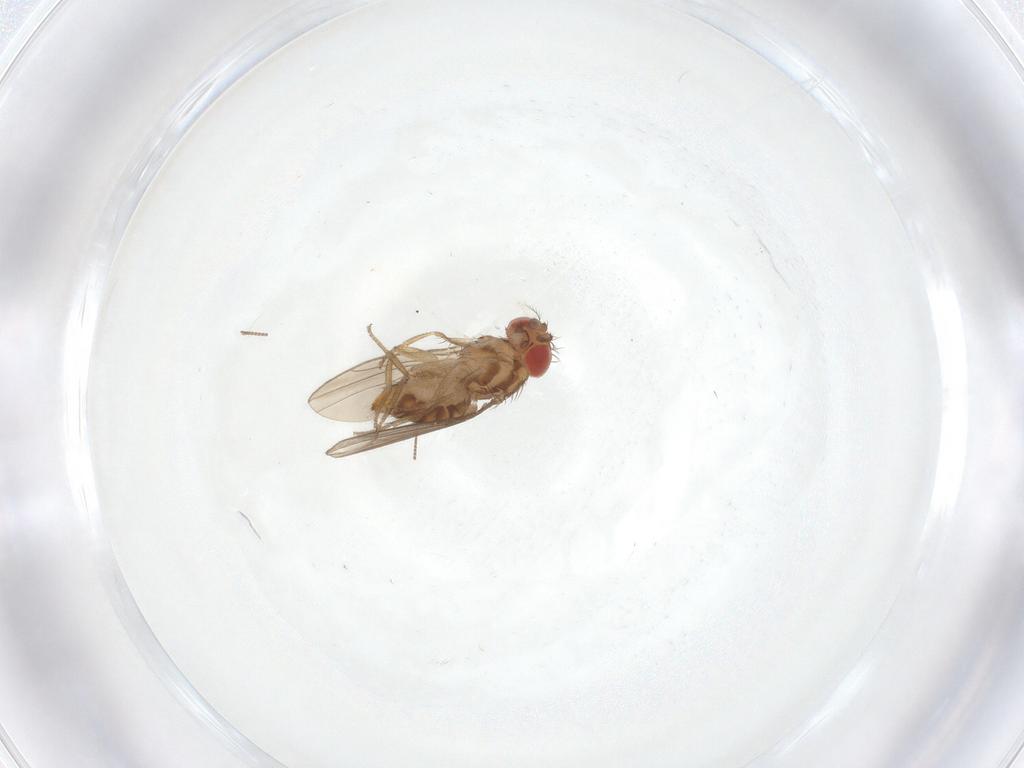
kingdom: Animalia
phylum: Arthropoda
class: Insecta
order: Diptera
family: Drosophilidae
